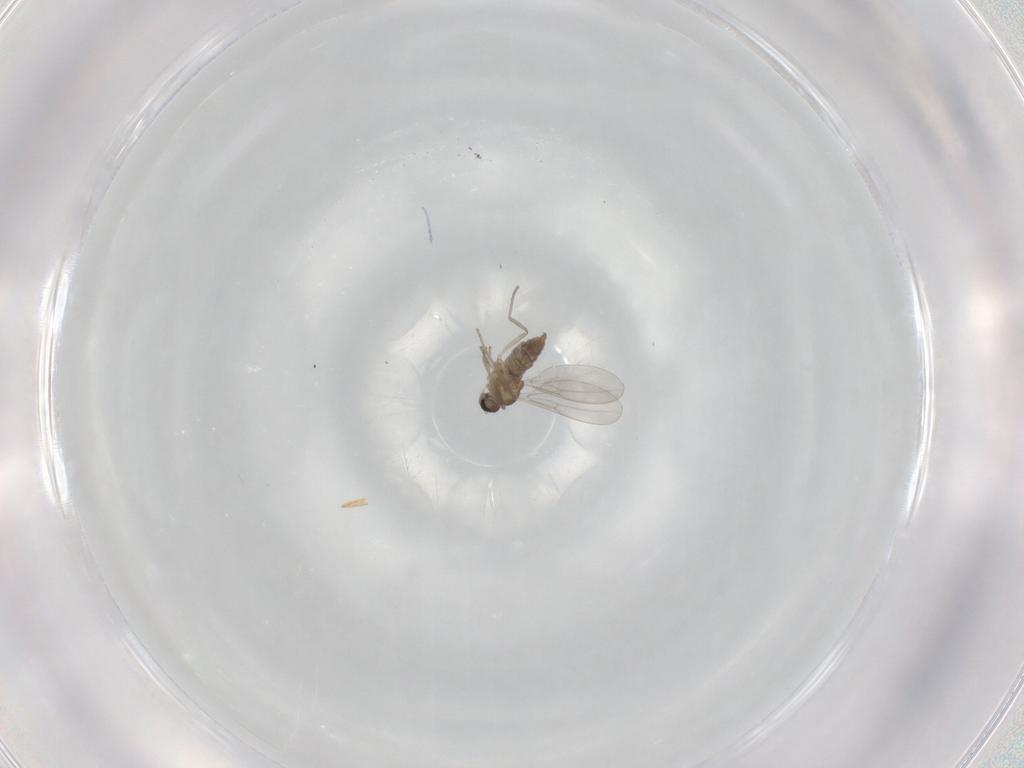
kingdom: Animalia
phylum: Arthropoda
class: Insecta
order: Diptera
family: Cecidomyiidae
